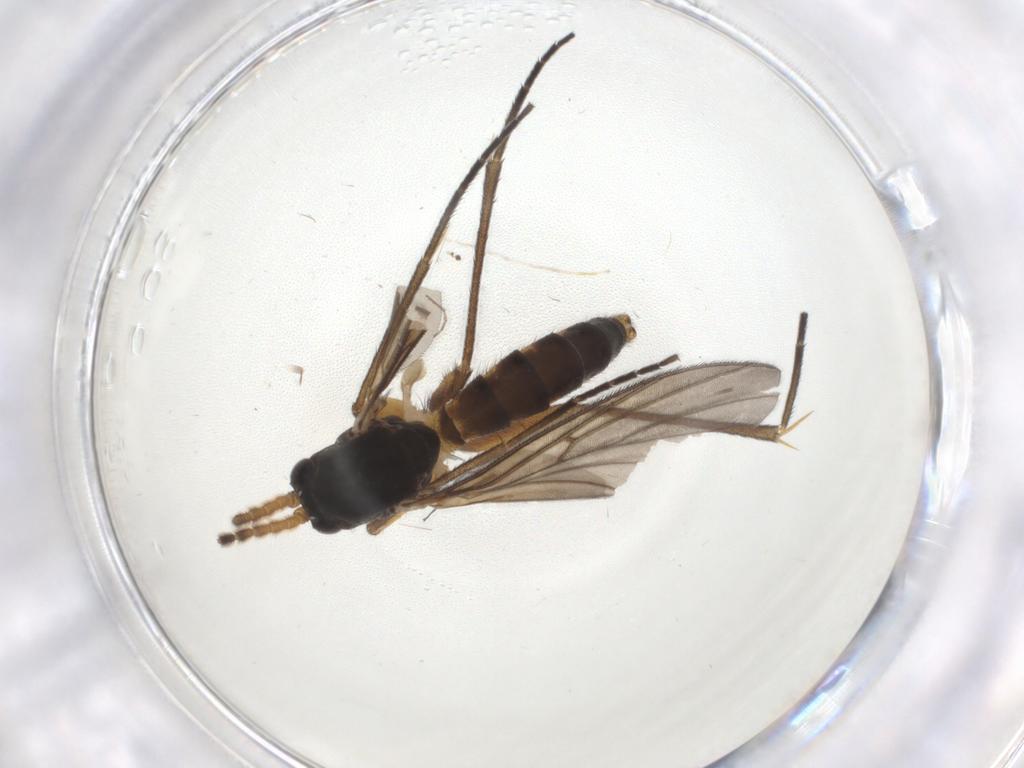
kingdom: Animalia
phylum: Arthropoda
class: Insecta
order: Diptera
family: Mycetophilidae
